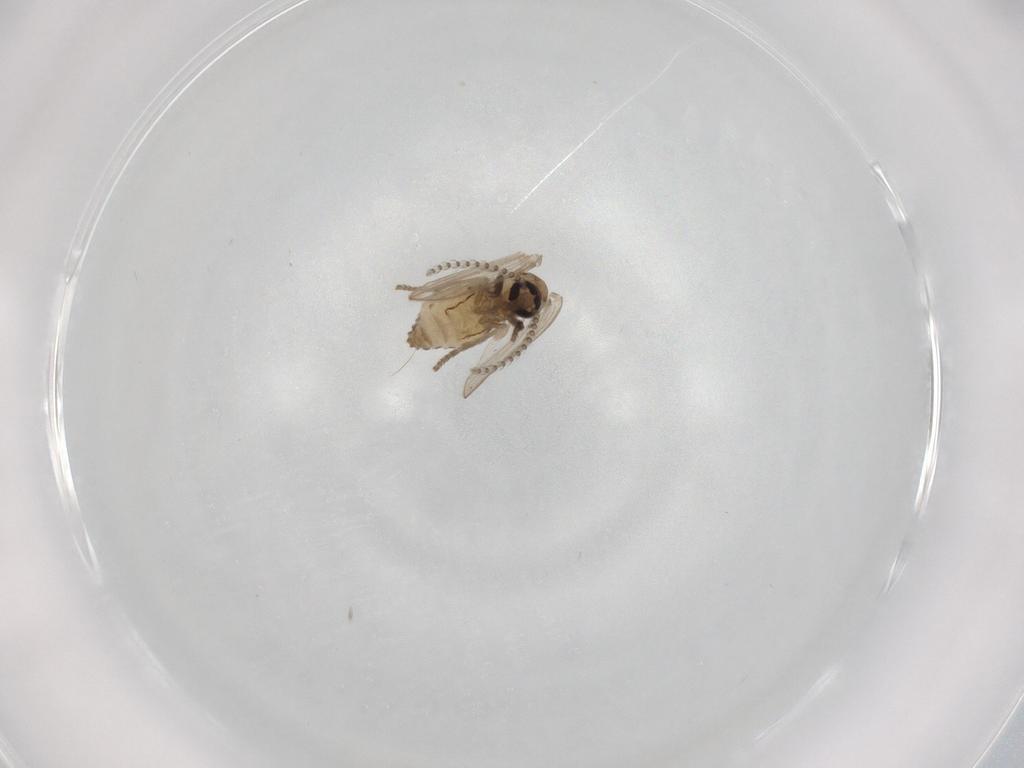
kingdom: Animalia
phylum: Arthropoda
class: Insecta
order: Diptera
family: Psychodidae
